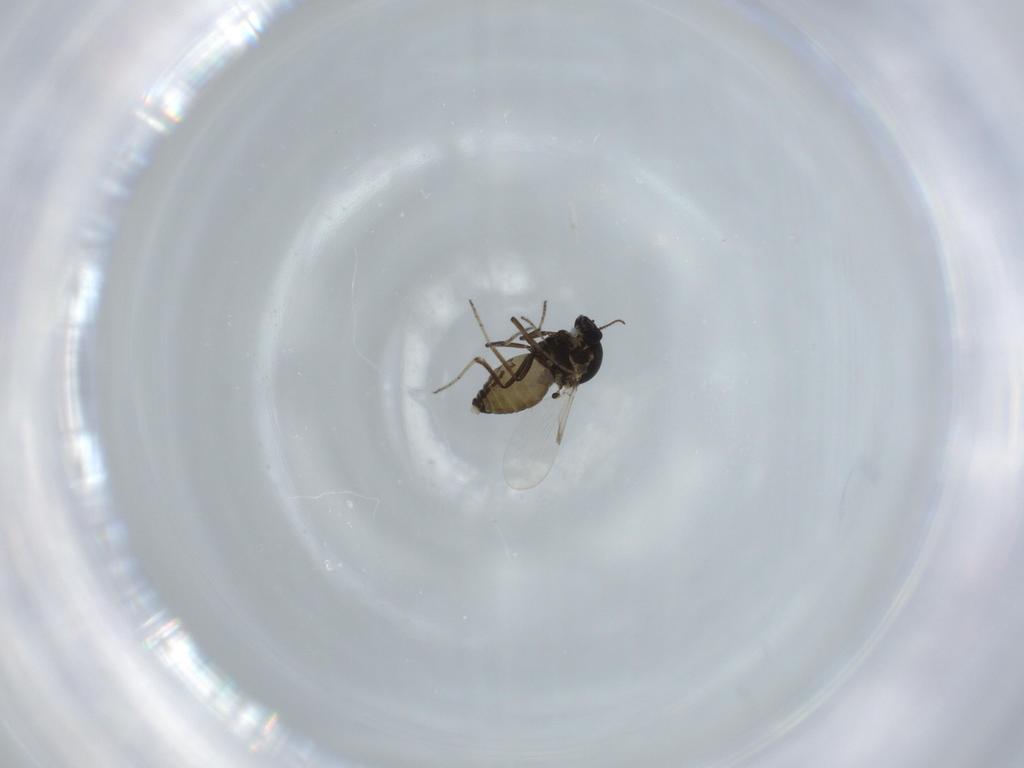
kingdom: Animalia
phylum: Arthropoda
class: Insecta
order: Diptera
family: Ceratopogonidae
